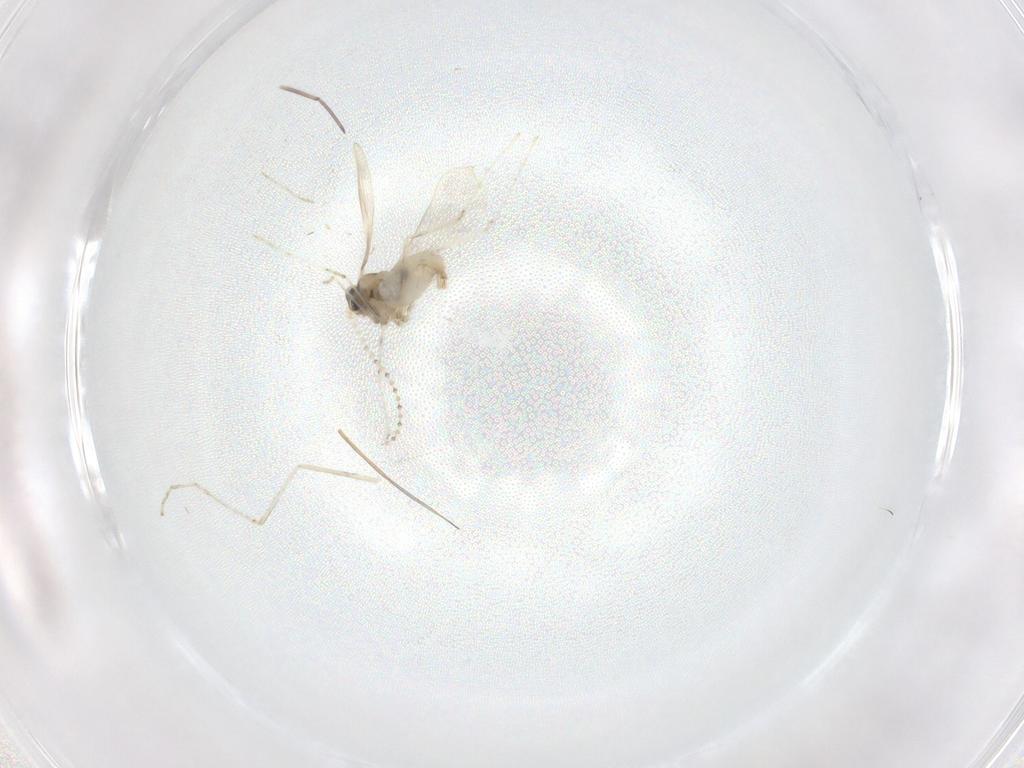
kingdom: Animalia
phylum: Arthropoda
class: Insecta
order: Diptera
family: Cecidomyiidae
